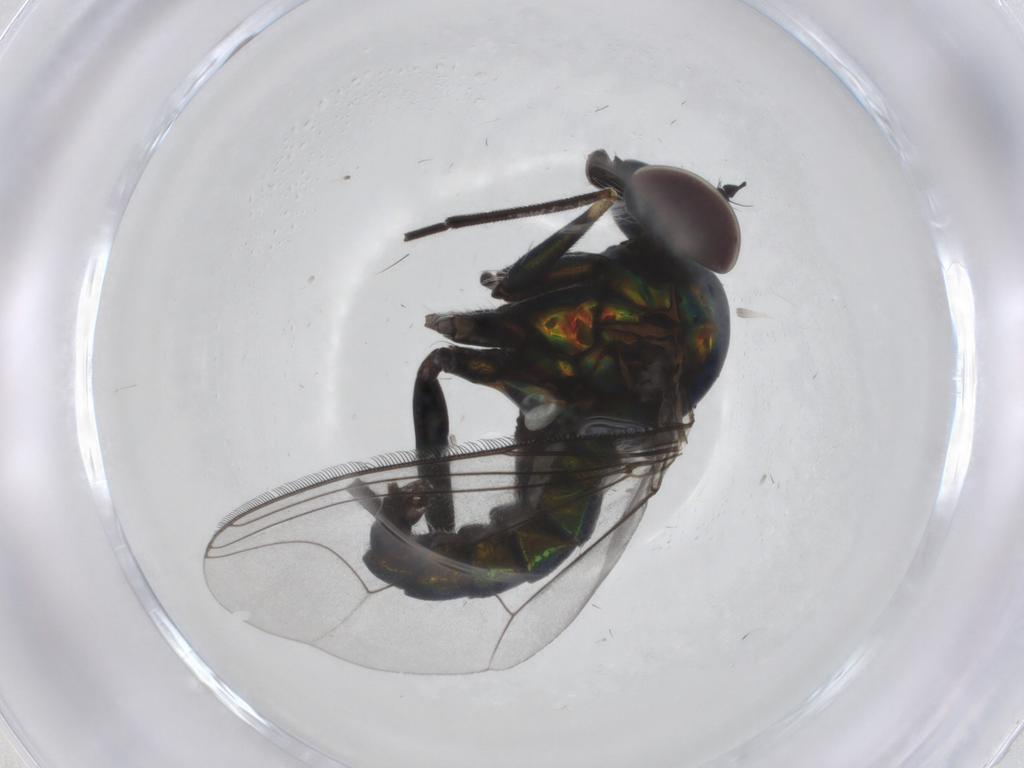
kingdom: Animalia
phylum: Arthropoda
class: Insecta
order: Diptera
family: Dolichopodidae
